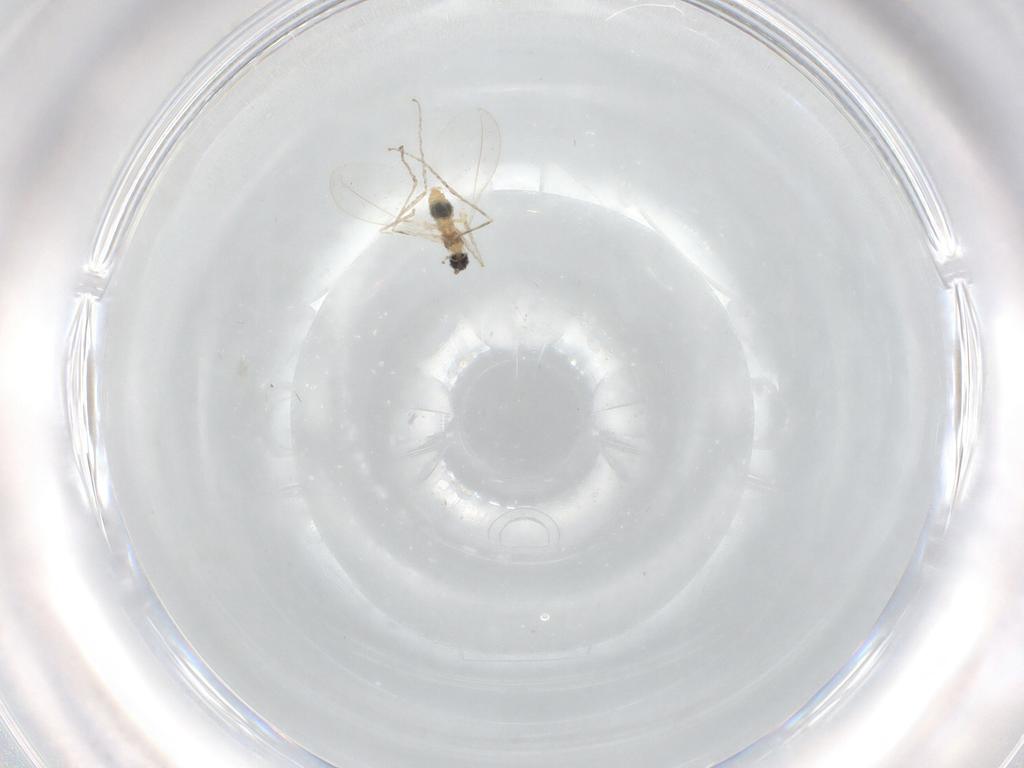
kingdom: Animalia
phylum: Arthropoda
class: Insecta
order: Diptera
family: Cecidomyiidae
